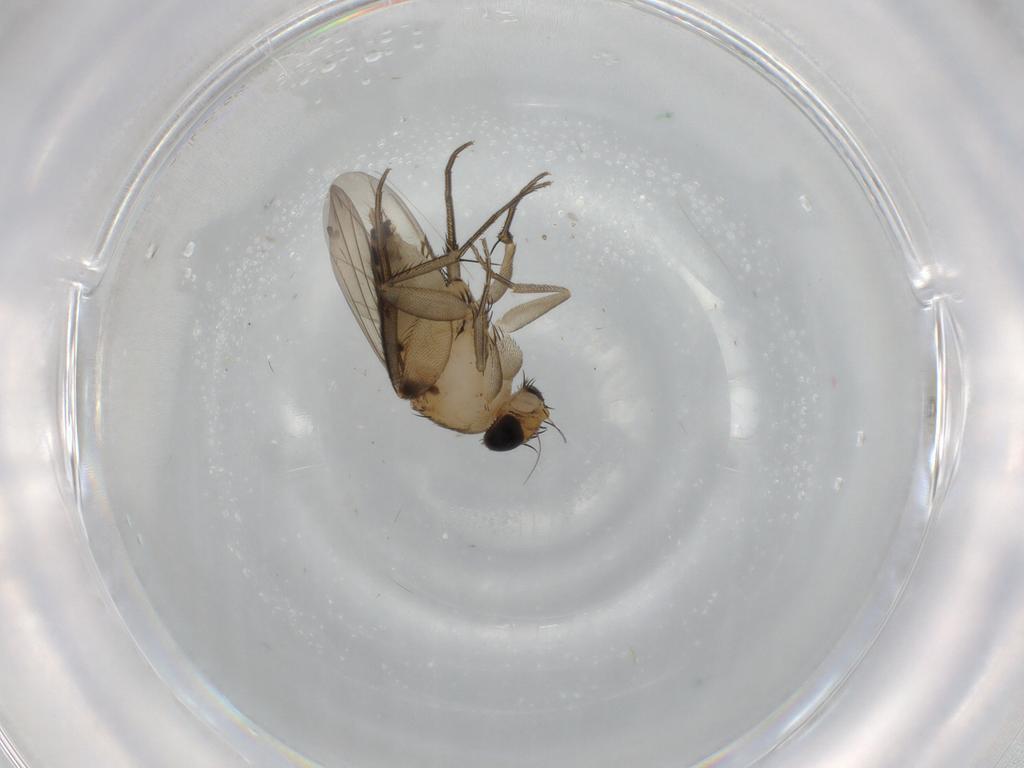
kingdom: Animalia
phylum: Arthropoda
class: Insecta
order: Diptera
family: Phoridae
